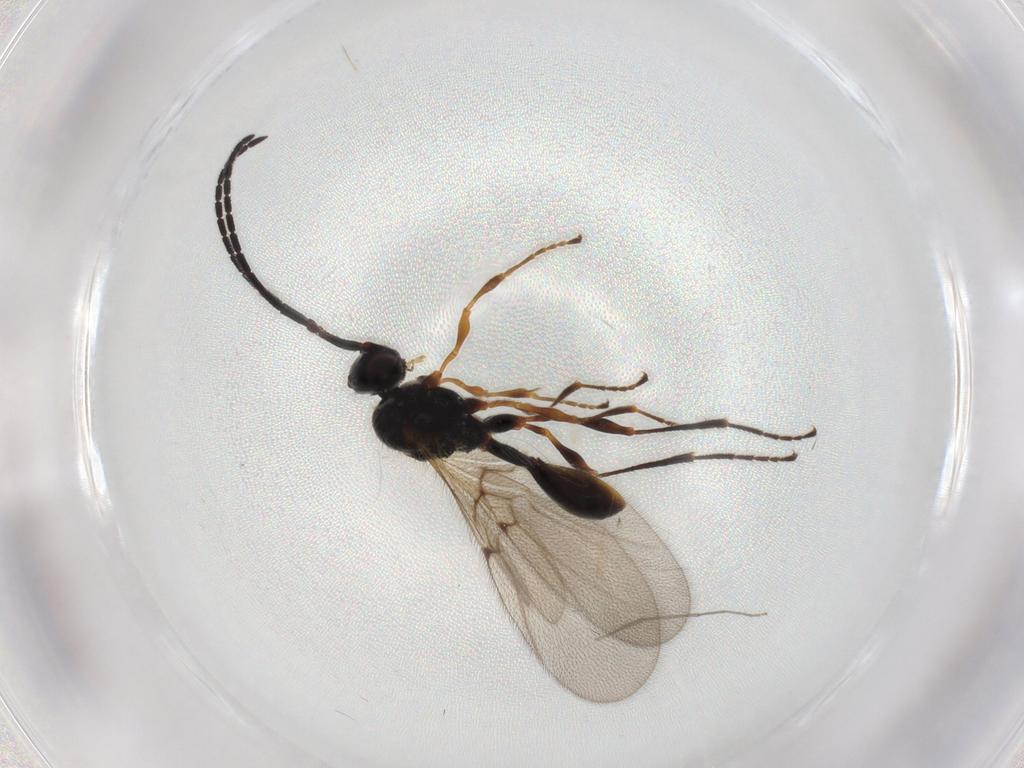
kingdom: Animalia
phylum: Arthropoda
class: Insecta
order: Hymenoptera
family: Diapriidae
